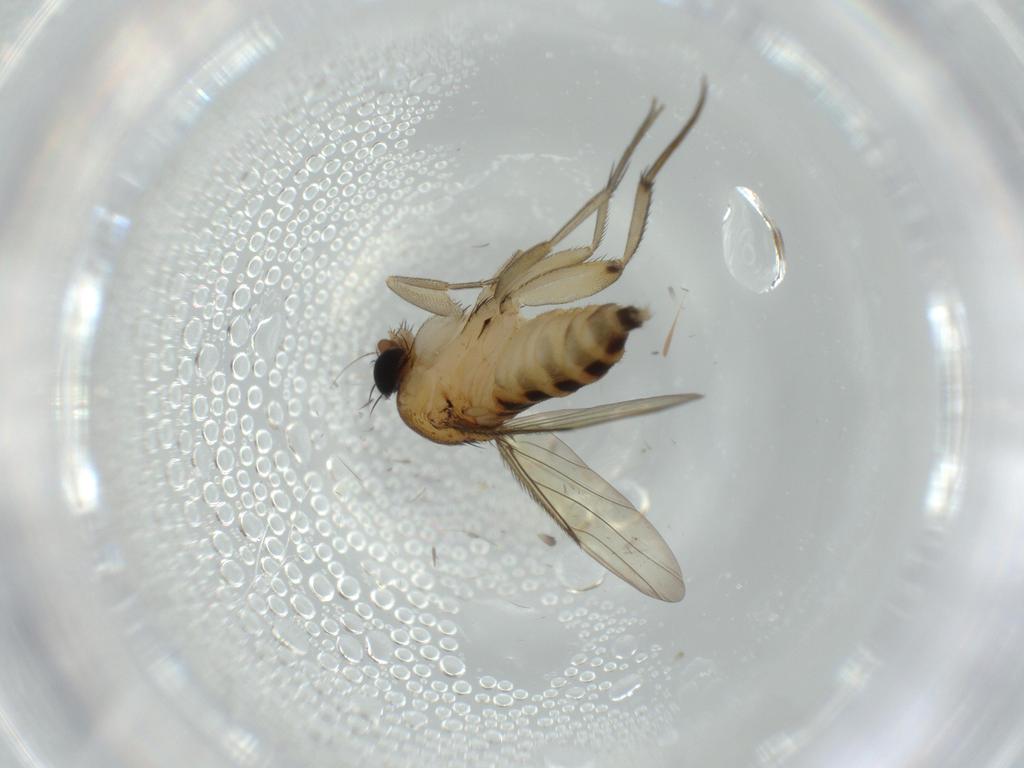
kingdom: Animalia
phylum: Arthropoda
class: Insecta
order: Diptera
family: Phoridae
